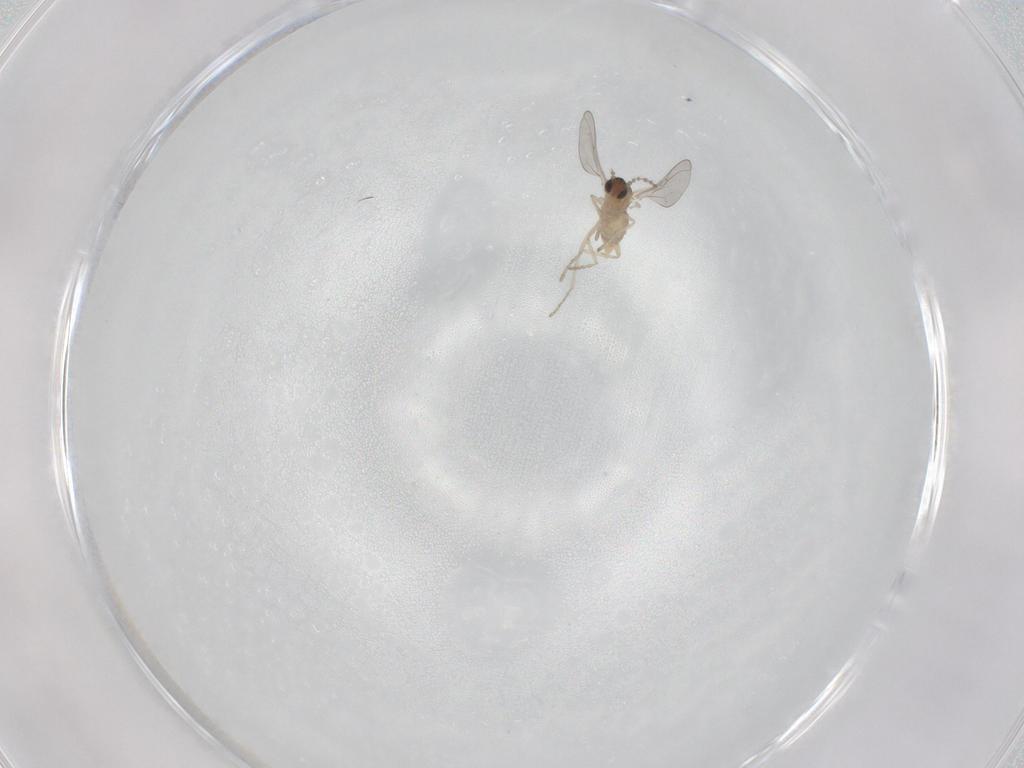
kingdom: Animalia
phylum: Arthropoda
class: Insecta
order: Diptera
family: Cecidomyiidae
